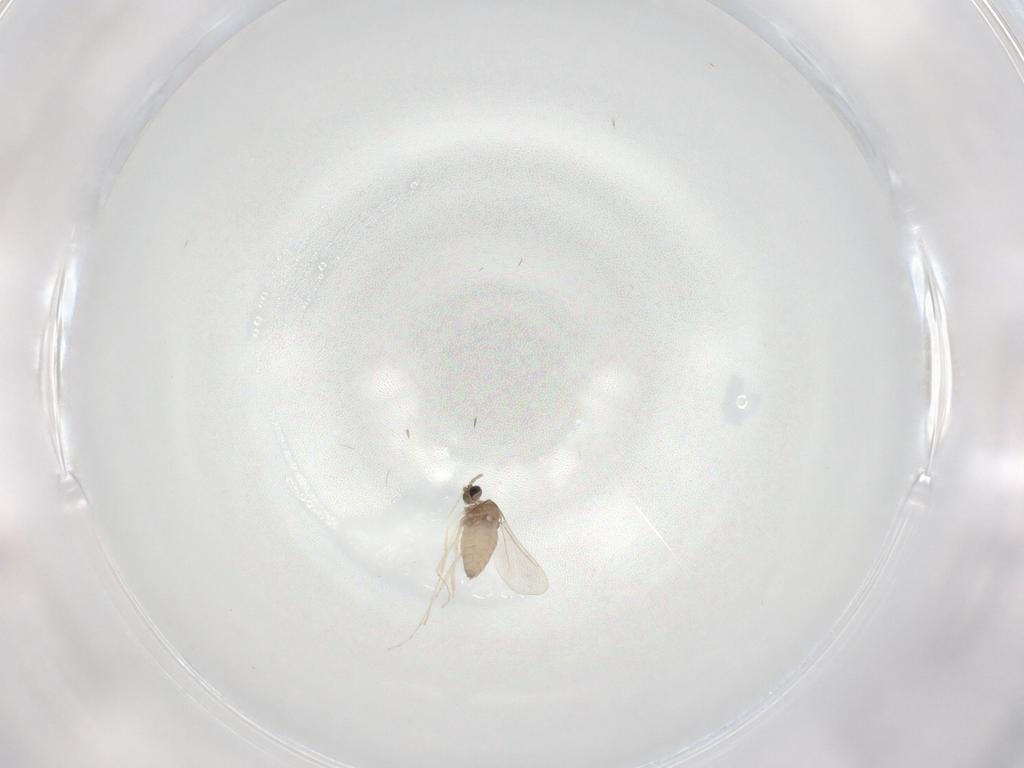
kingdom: Animalia
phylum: Arthropoda
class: Insecta
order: Diptera
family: Cecidomyiidae
